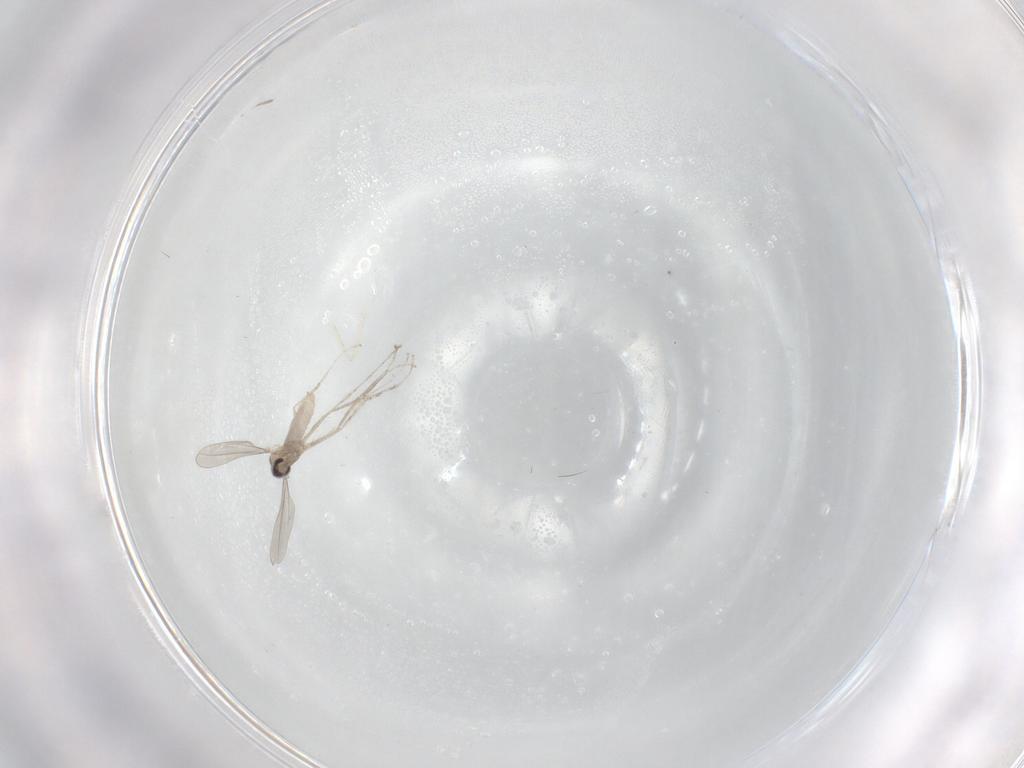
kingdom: Animalia
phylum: Arthropoda
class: Insecta
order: Diptera
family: Cecidomyiidae
